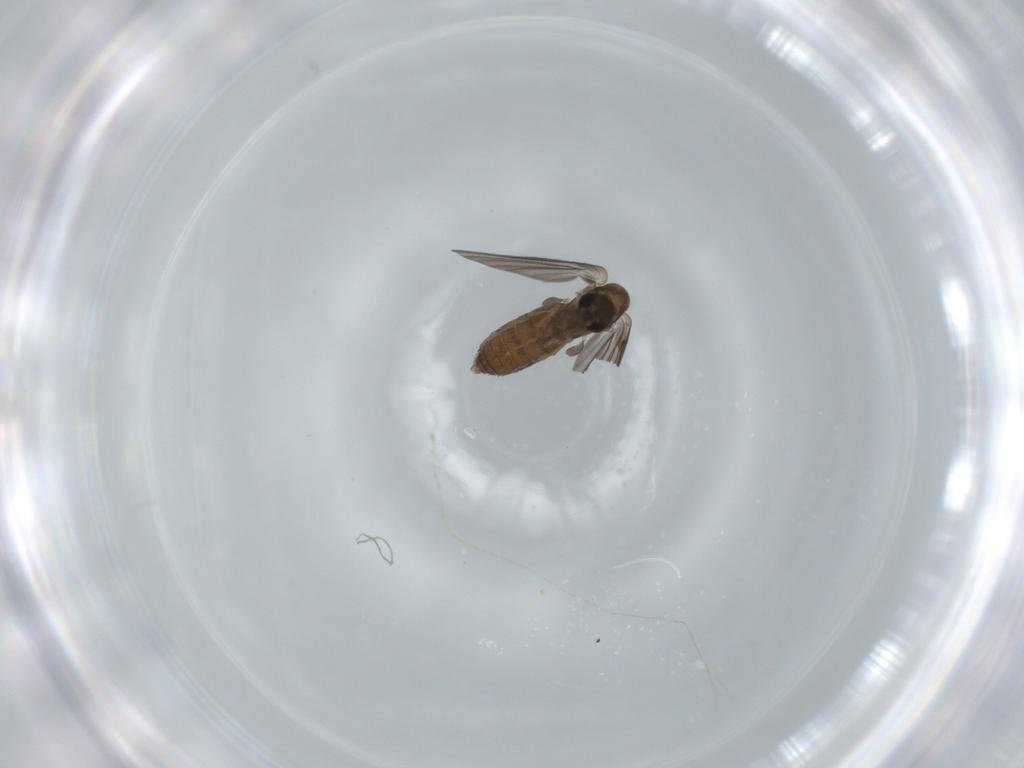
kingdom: Animalia
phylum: Arthropoda
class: Insecta
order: Diptera
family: Psychodidae
